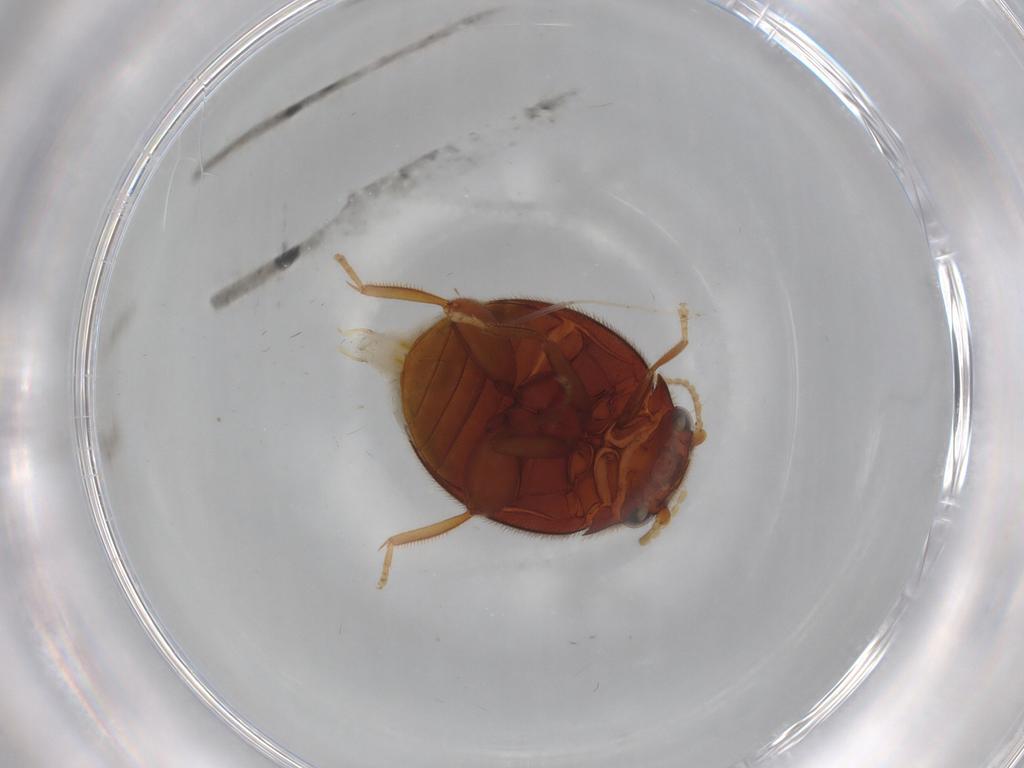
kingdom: Animalia
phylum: Arthropoda
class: Insecta
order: Coleoptera
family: Scirtidae
